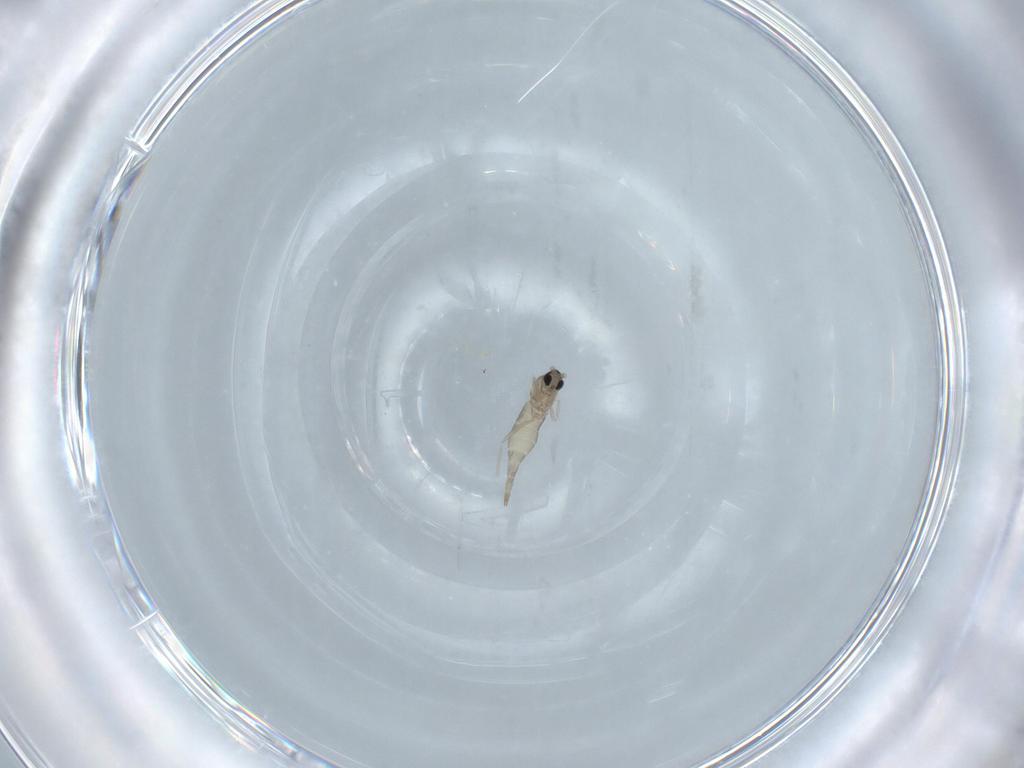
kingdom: Animalia
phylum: Arthropoda
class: Insecta
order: Diptera
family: Cecidomyiidae
